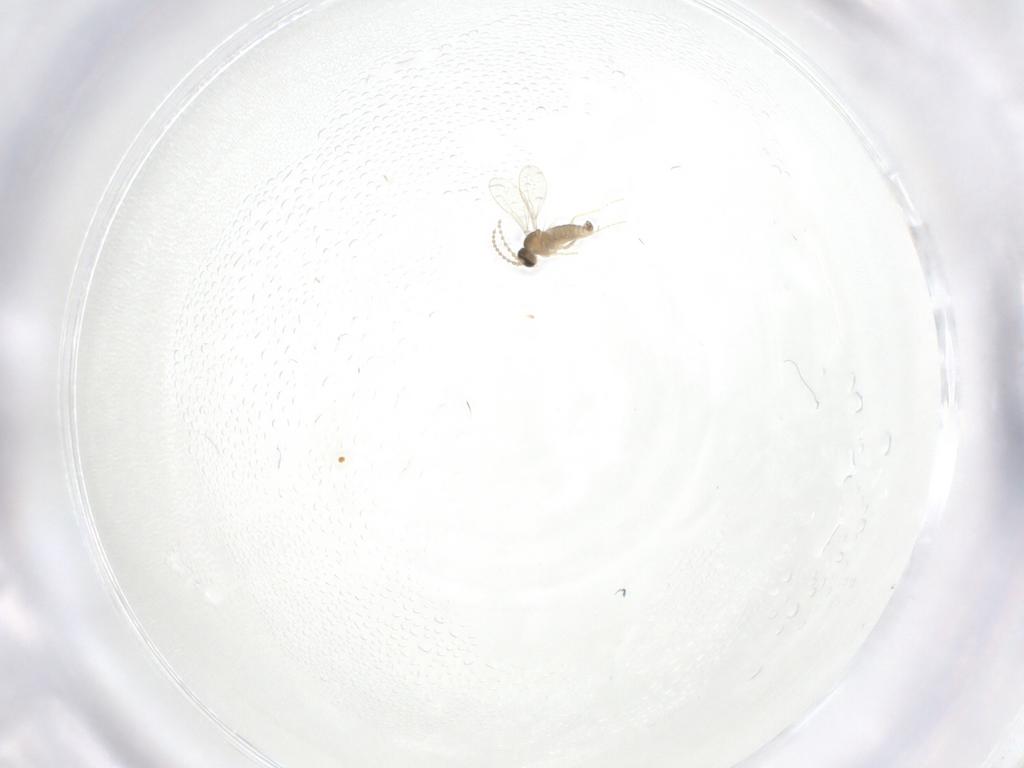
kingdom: Animalia
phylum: Arthropoda
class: Insecta
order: Diptera
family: Cecidomyiidae
